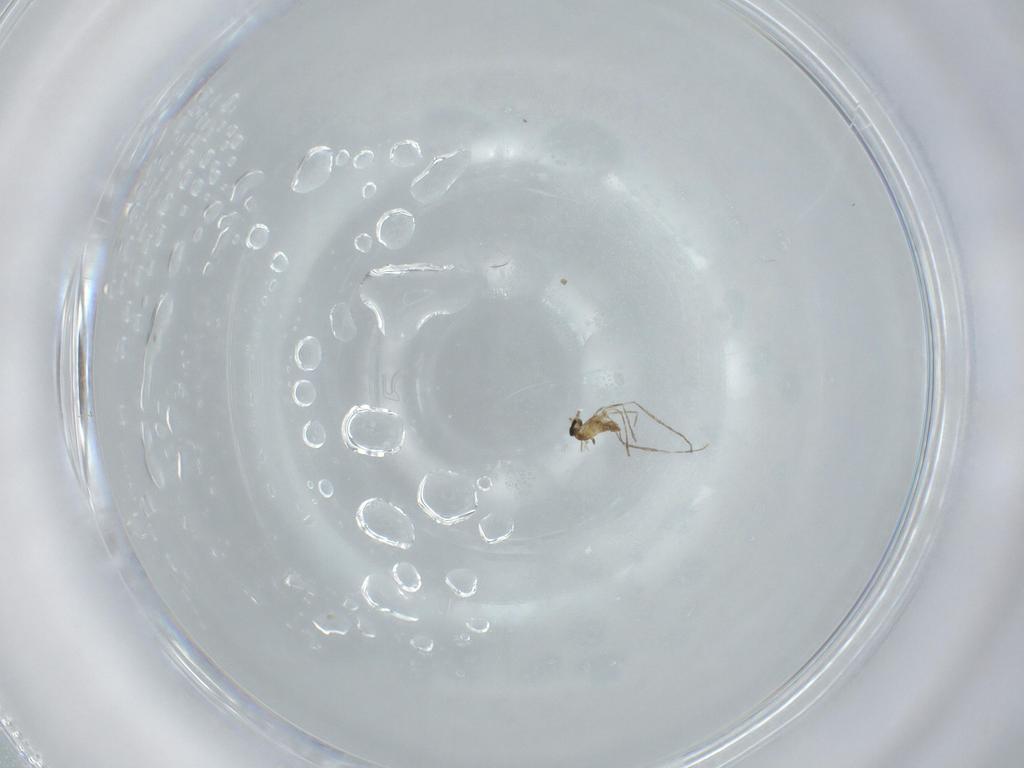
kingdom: Animalia
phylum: Arthropoda
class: Insecta
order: Diptera
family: Cecidomyiidae
